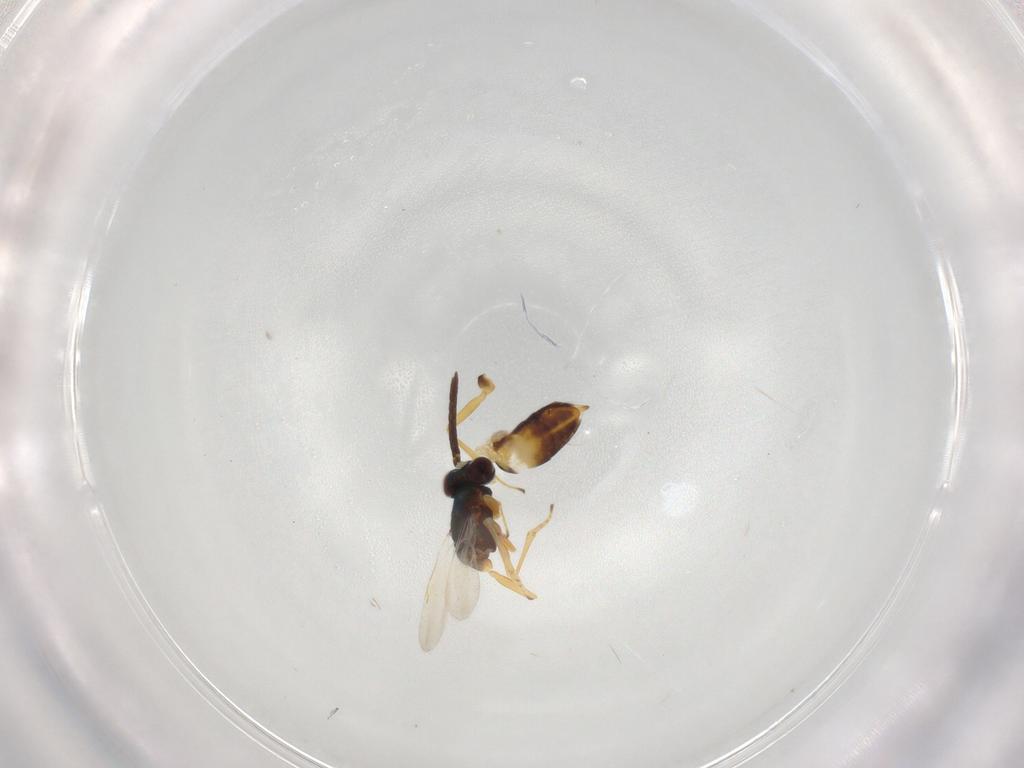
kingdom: Animalia
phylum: Arthropoda
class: Insecta
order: Hymenoptera
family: Encyrtidae
